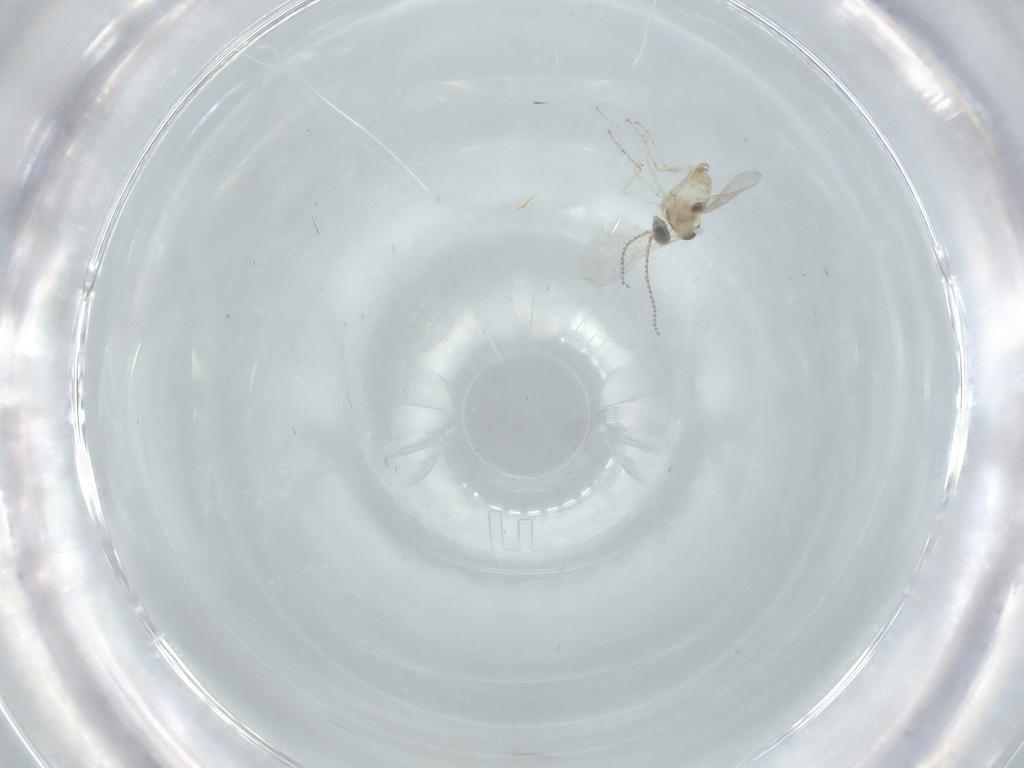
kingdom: Animalia
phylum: Arthropoda
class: Insecta
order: Diptera
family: Cecidomyiidae
